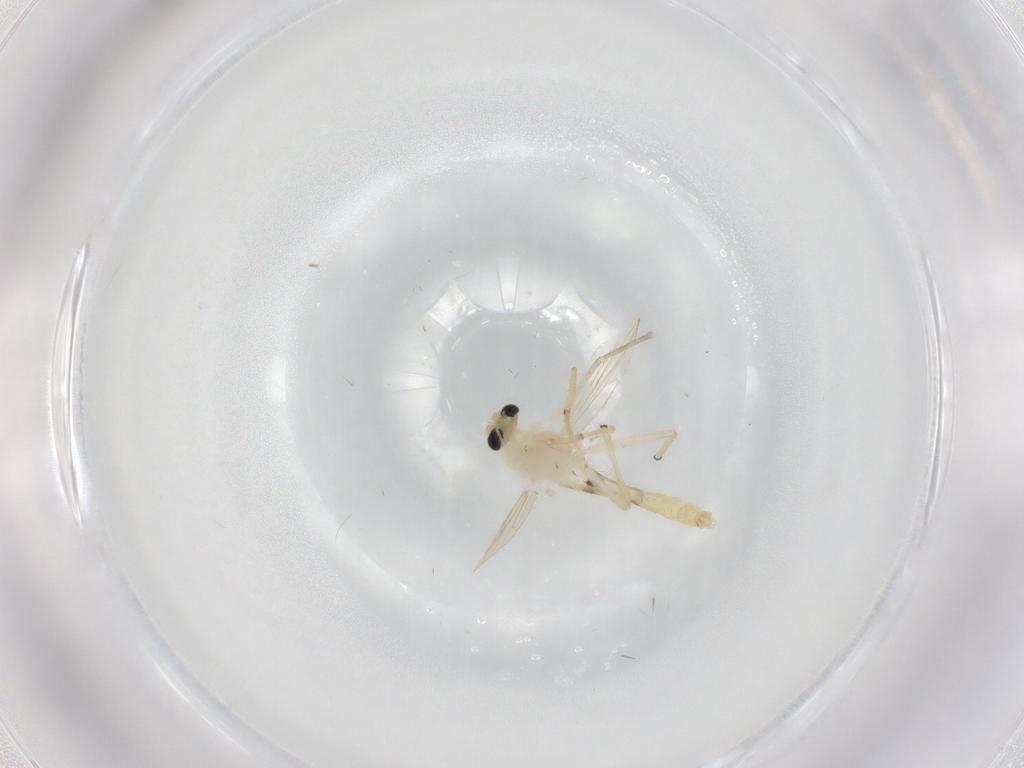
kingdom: Animalia
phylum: Arthropoda
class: Insecta
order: Diptera
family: Chironomidae
